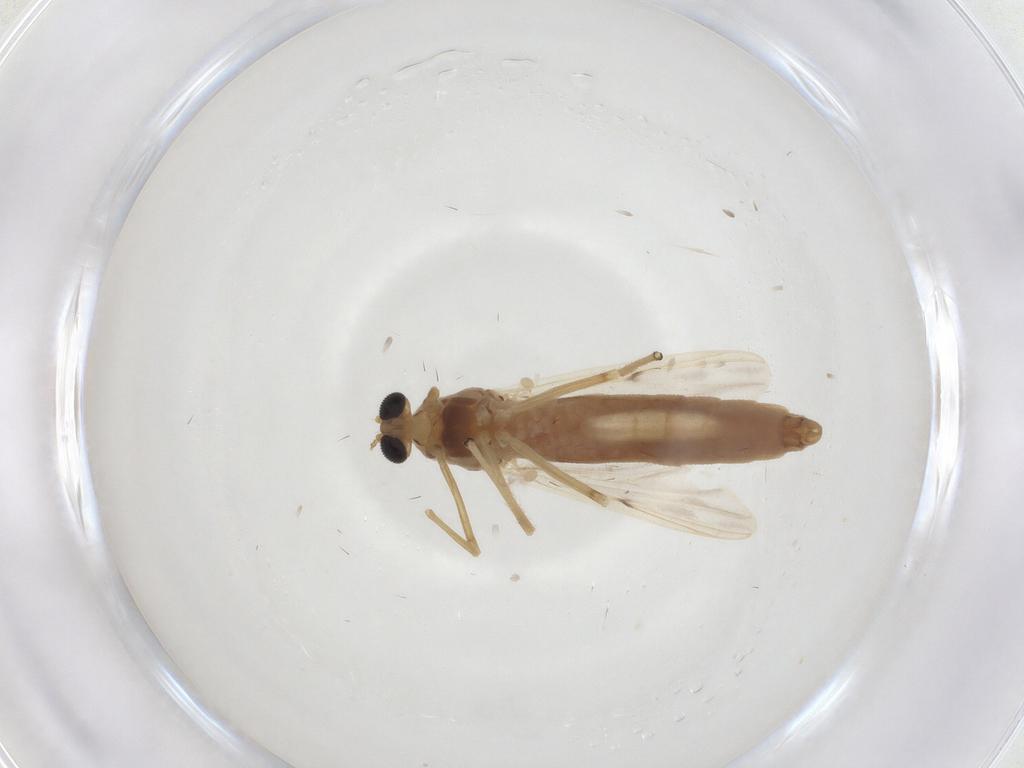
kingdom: Animalia
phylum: Arthropoda
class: Insecta
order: Diptera
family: Chironomidae
